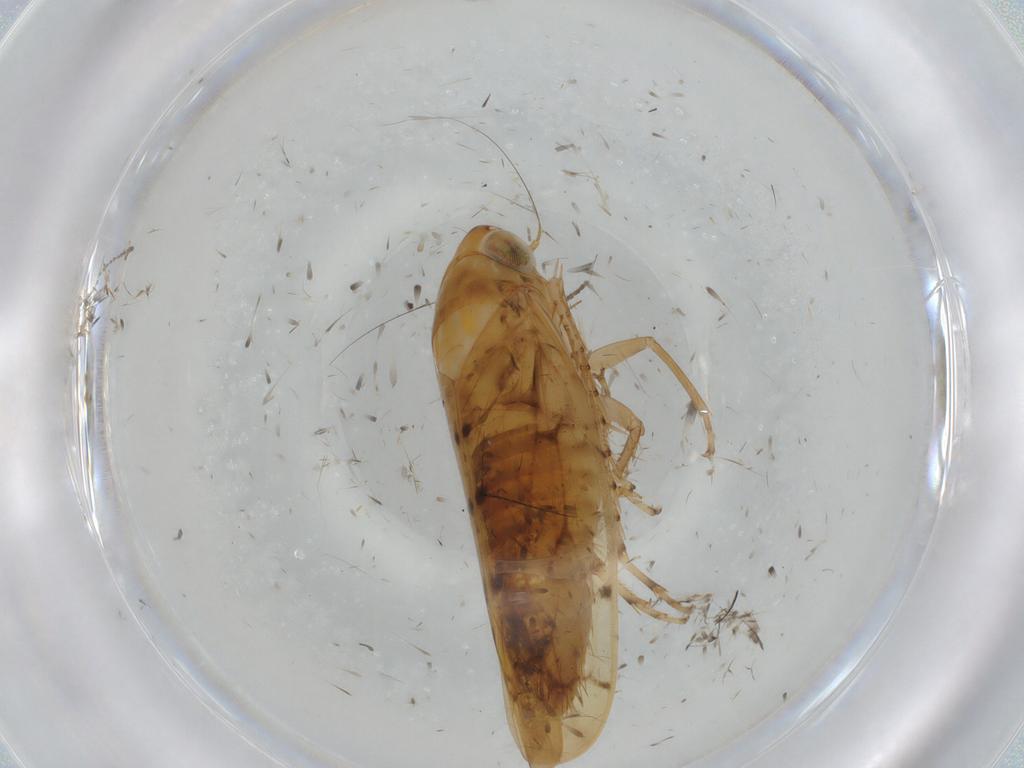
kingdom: Animalia
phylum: Arthropoda
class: Insecta
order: Hemiptera
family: Cicadellidae
